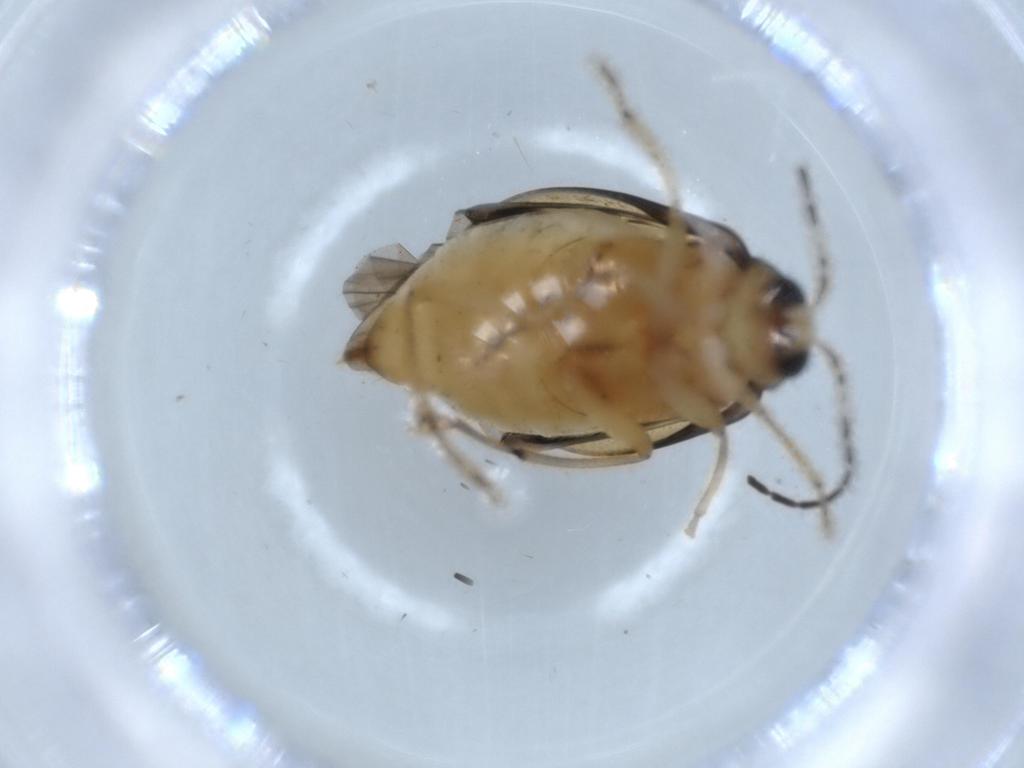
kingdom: Animalia
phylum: Arthropoda
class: Insecta
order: Coleoptera
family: Chrysomelidae
